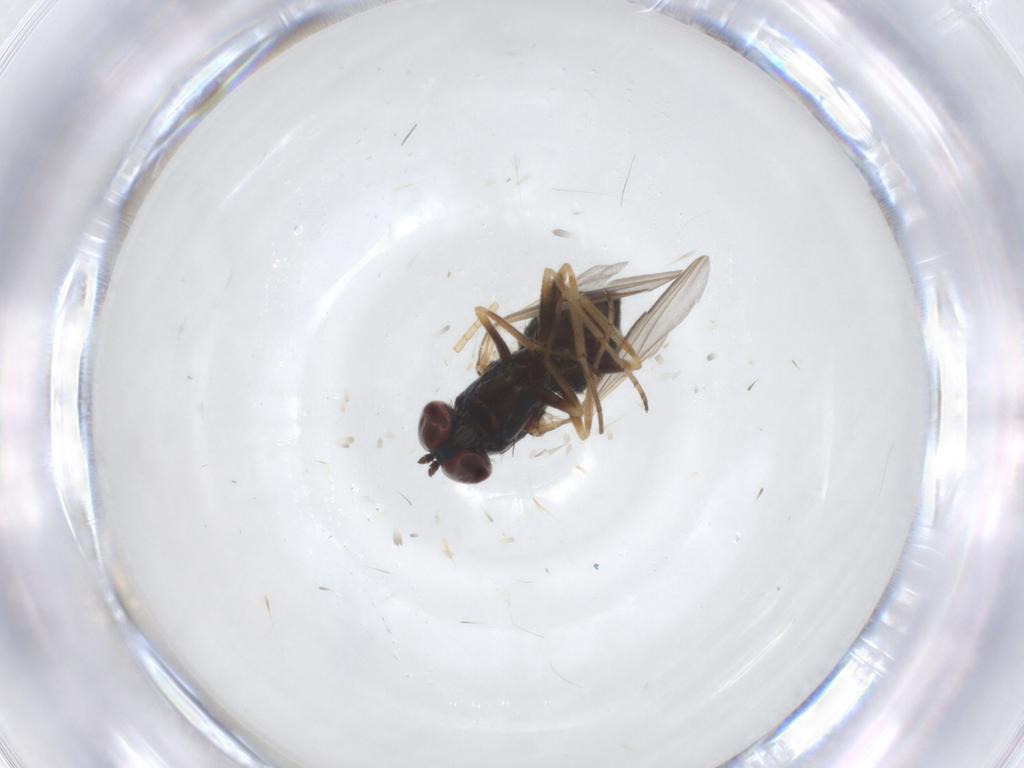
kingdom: Animalia
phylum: Arthropoda
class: Insecta
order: Diptera
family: Dolichopodidae
